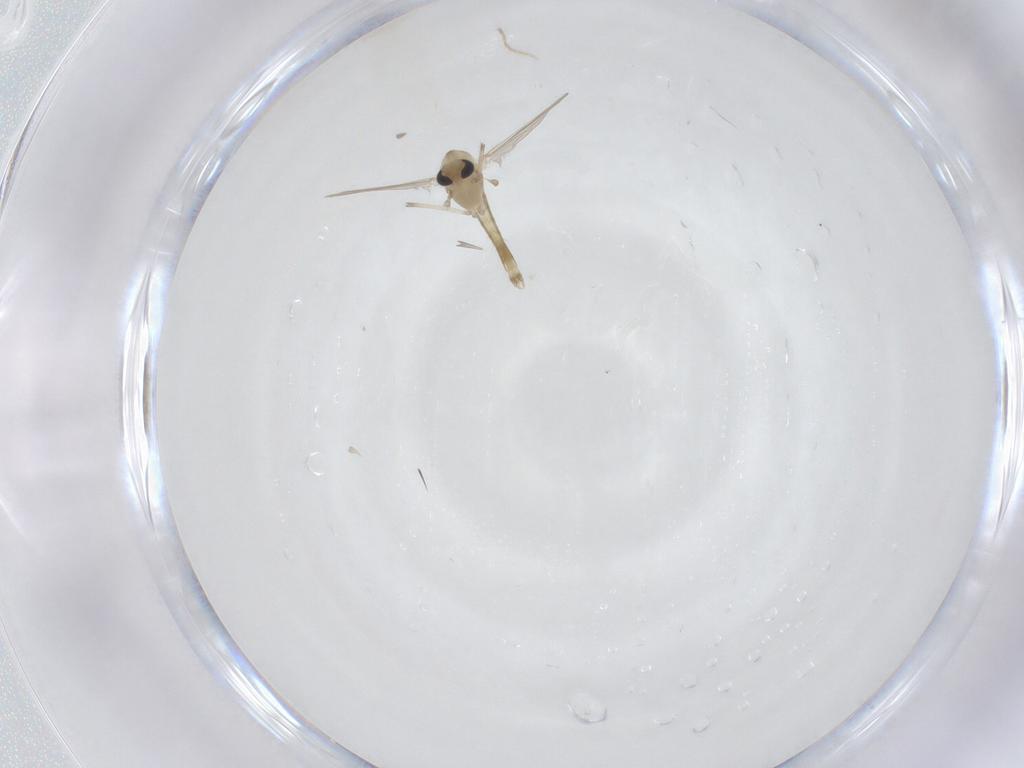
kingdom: Animalia
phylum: Arthropoda
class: Insecta
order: Diptera
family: Chironomidae
